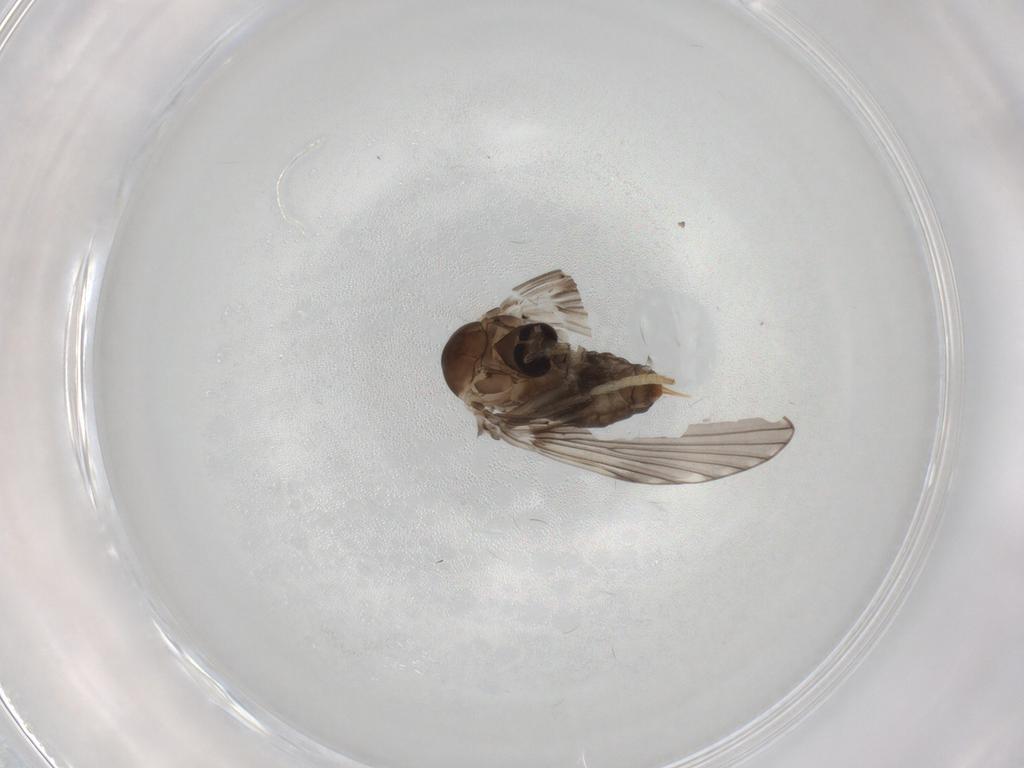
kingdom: Animalia
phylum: Arthropoda
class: Insecta
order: Diptera
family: Psychodidae
